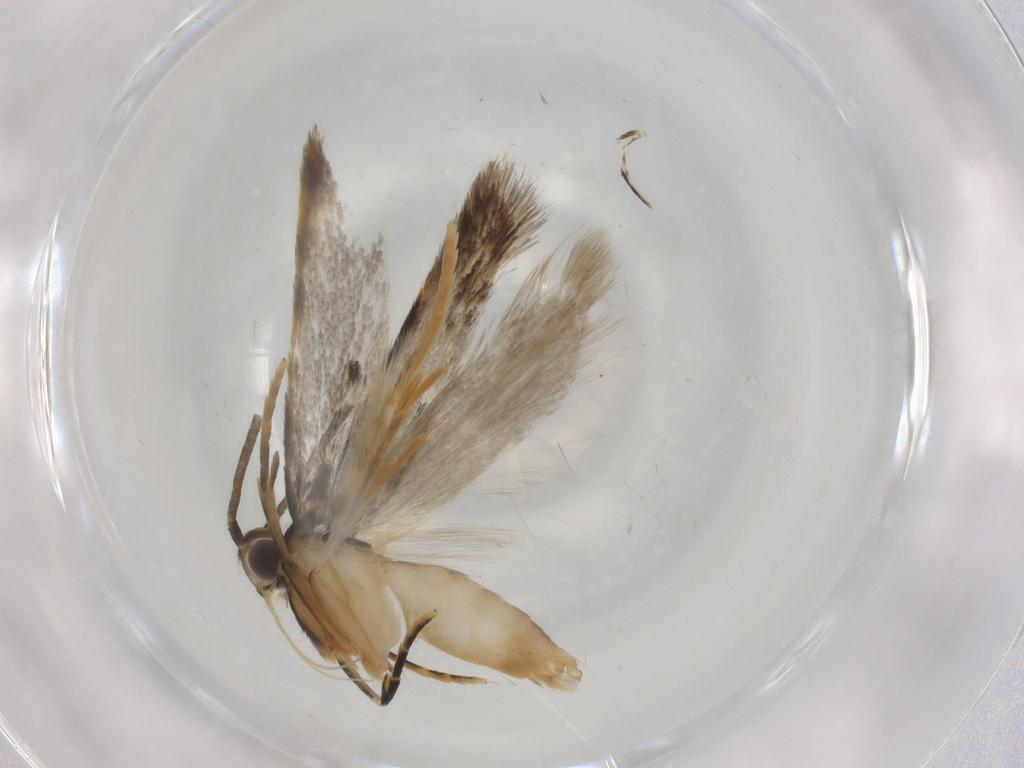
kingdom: Animalia
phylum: Arthropoda
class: Insecta
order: Lepidoptera
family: Autostichidae
